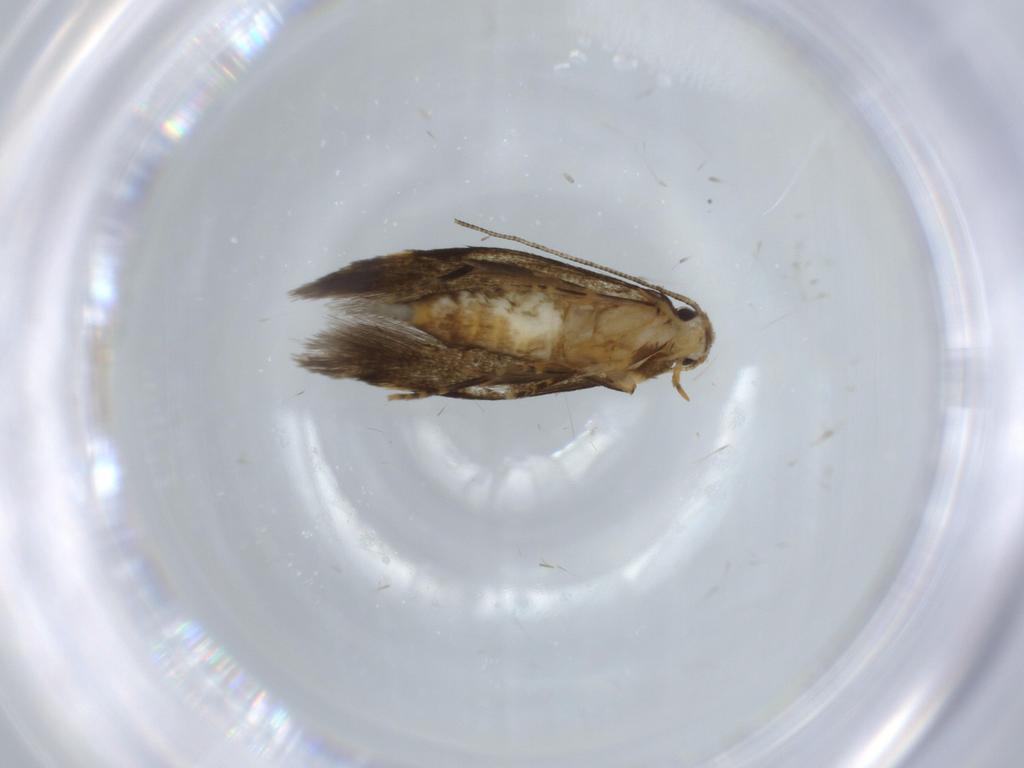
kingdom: Animalia
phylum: Arthropoda
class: Insecta
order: Lepidoptera
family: Tineidae
